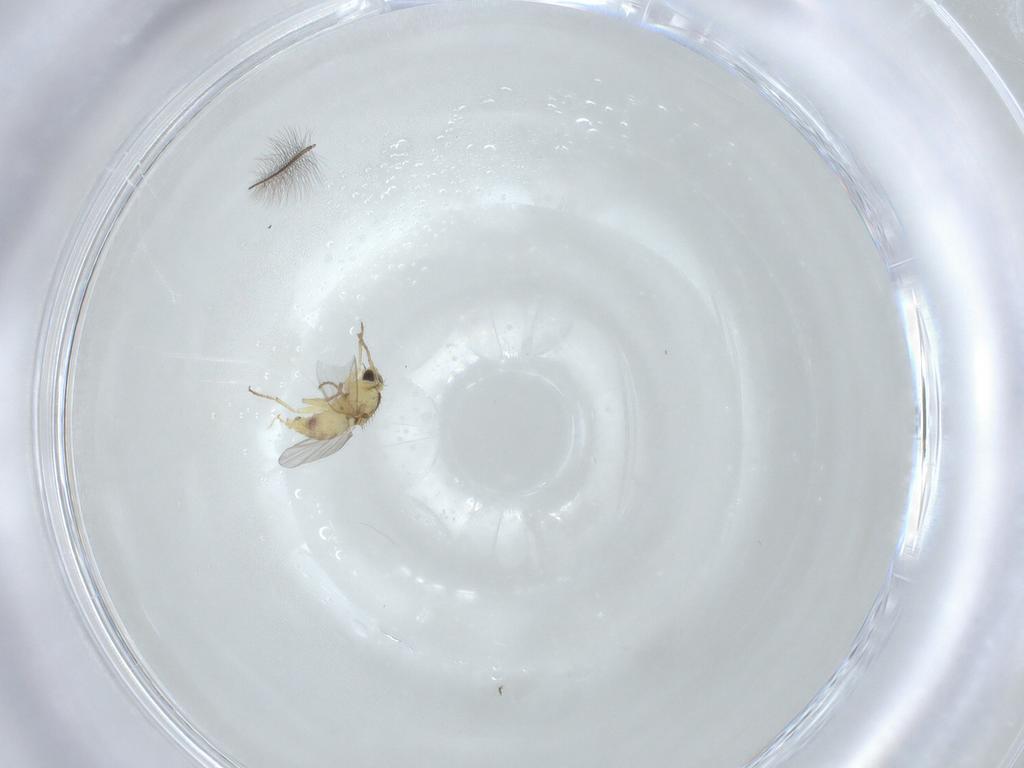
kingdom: Animalia
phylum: Arthropoda
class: Insecta
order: Diptera
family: Agromyzidae
